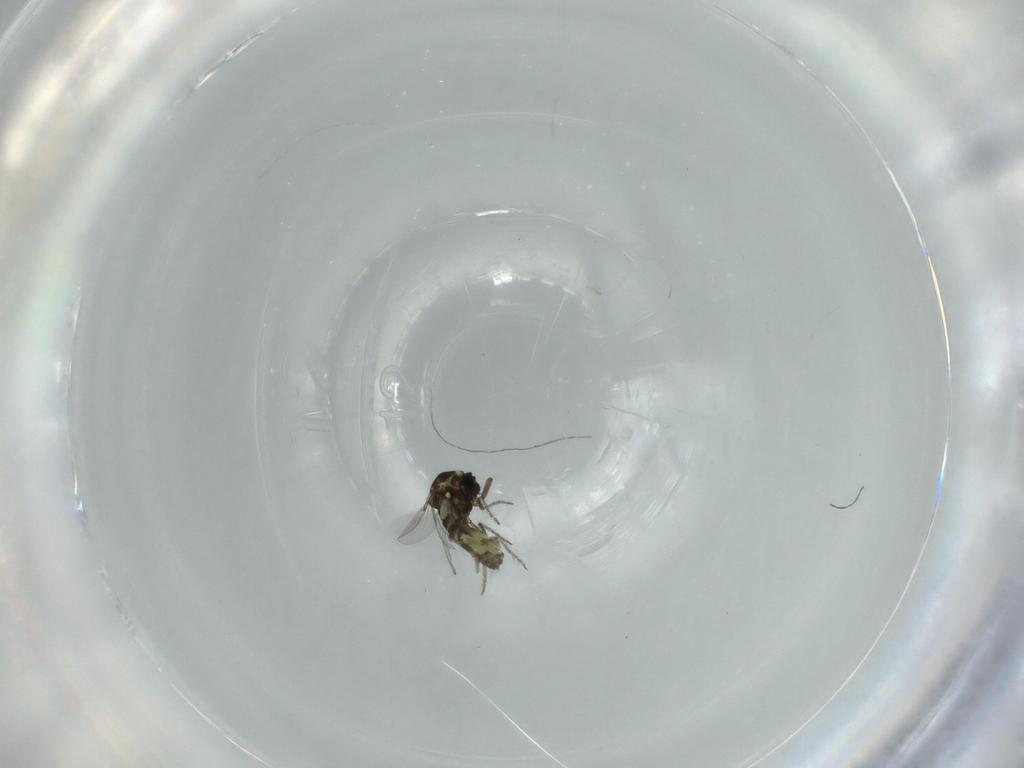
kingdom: Animalia
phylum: Arthropoda
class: Insecta
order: Diptera
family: Ceratopogonidae
